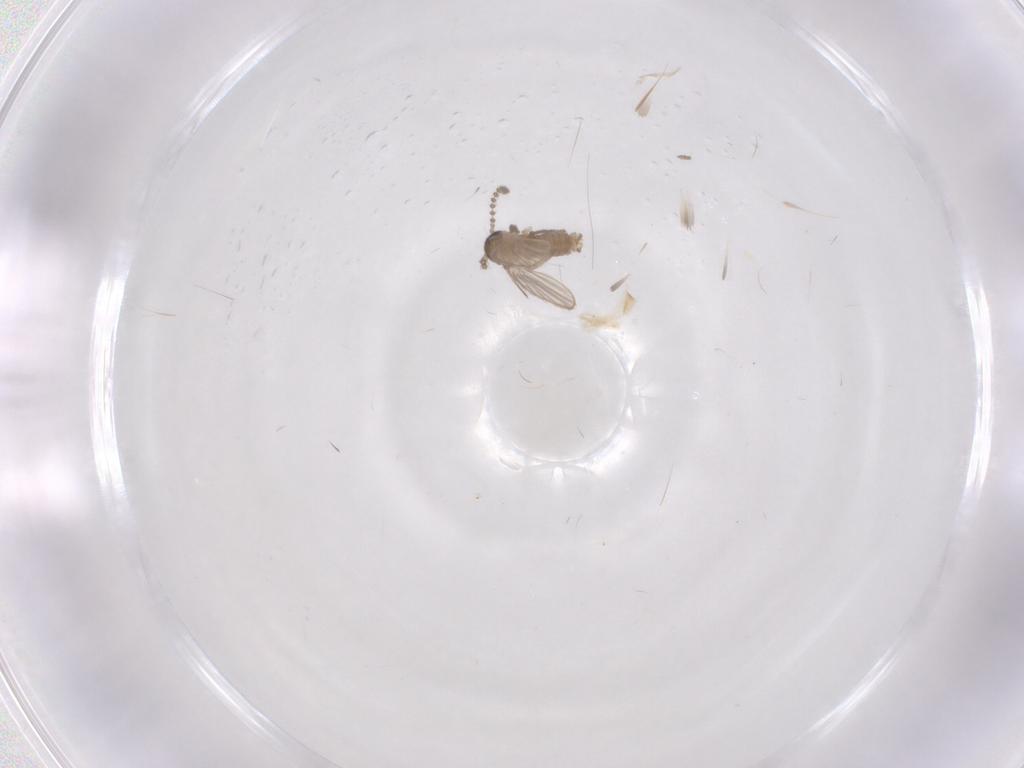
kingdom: Animalia
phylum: Arthropoda
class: Insecta
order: Diptera
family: Psychodidae
